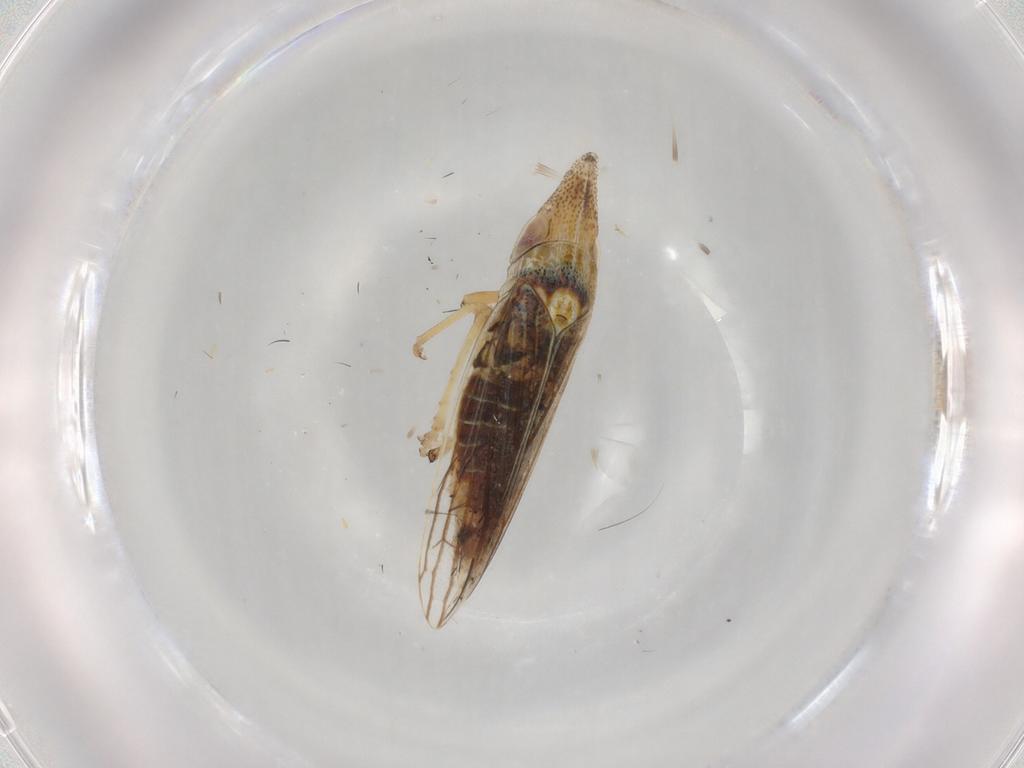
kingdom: Animalia
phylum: Arthropoda
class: Insecta
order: Hemiptera
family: Cicadellidae
